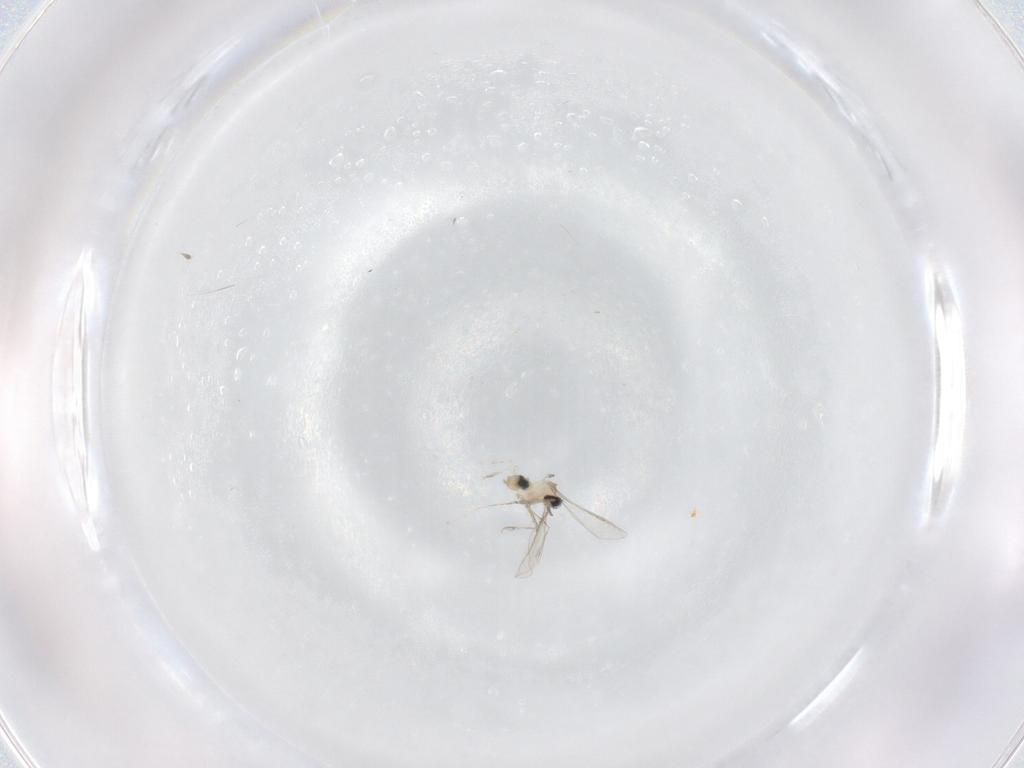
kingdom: Animalia
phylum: Arthropoda
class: Insecta
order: Diptera
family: Cecidomyiidae
